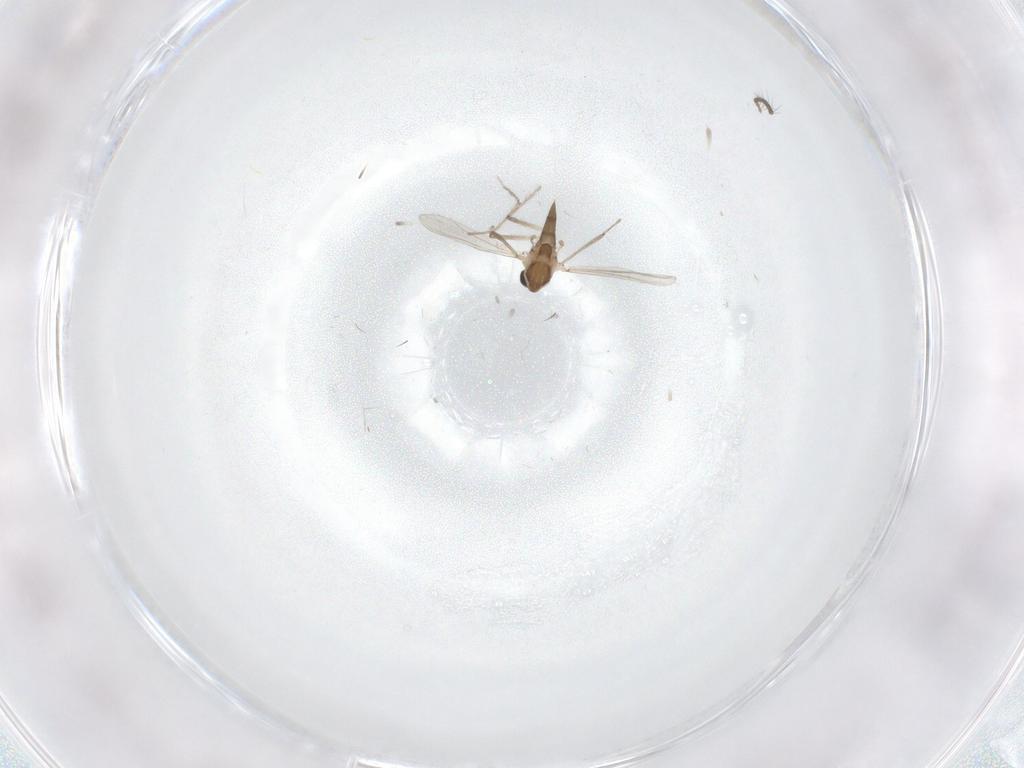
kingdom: Animalia
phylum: Arthropoda
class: Insecta
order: Diptera
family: Chironomidae
